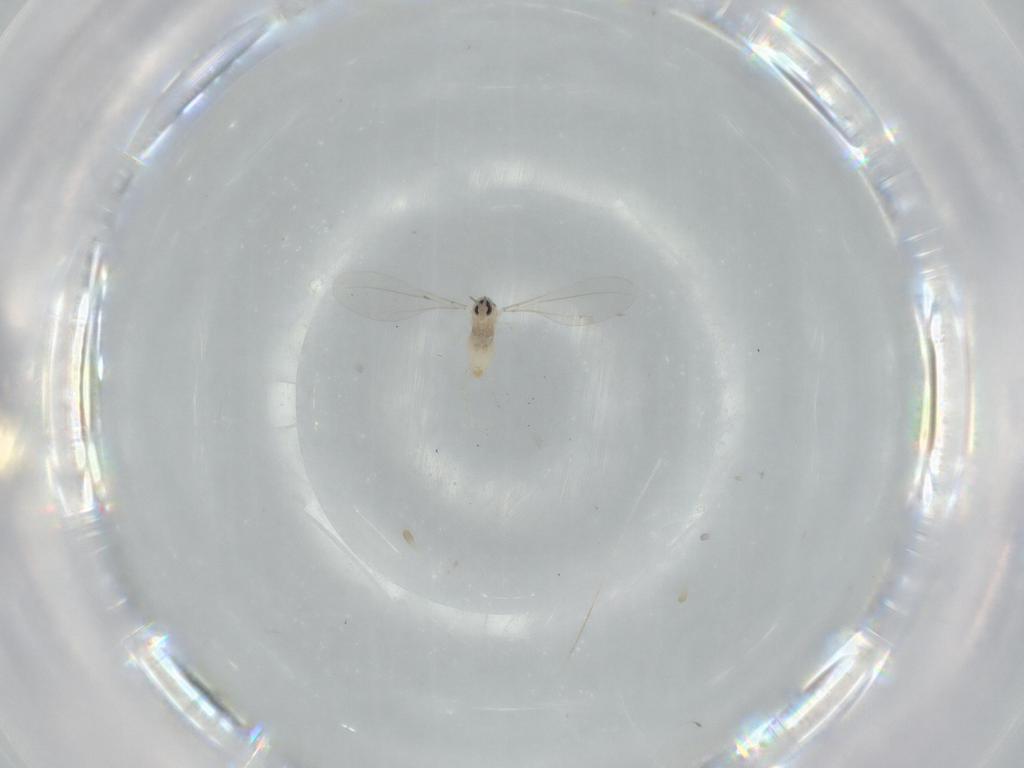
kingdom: Animalia
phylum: Arthropoda
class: Insecta
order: Diptera
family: Cecidomyiidae
